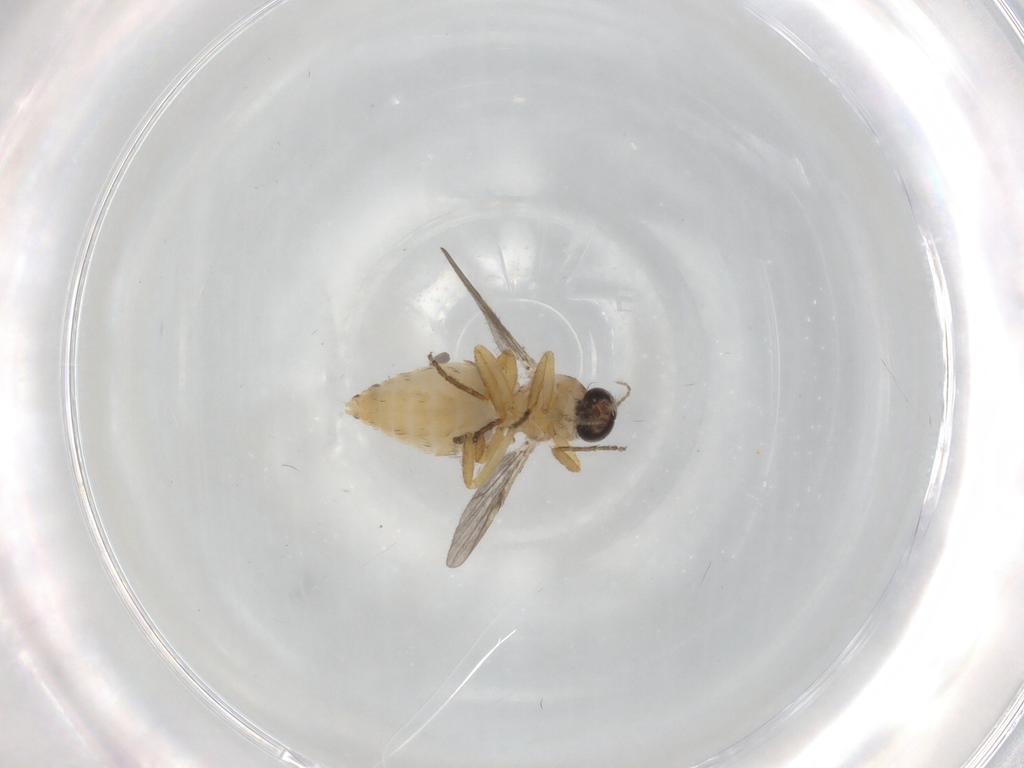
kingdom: Animalia
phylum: Arthropoda
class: Insecta
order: Diptera
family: Ceratopogonidae
